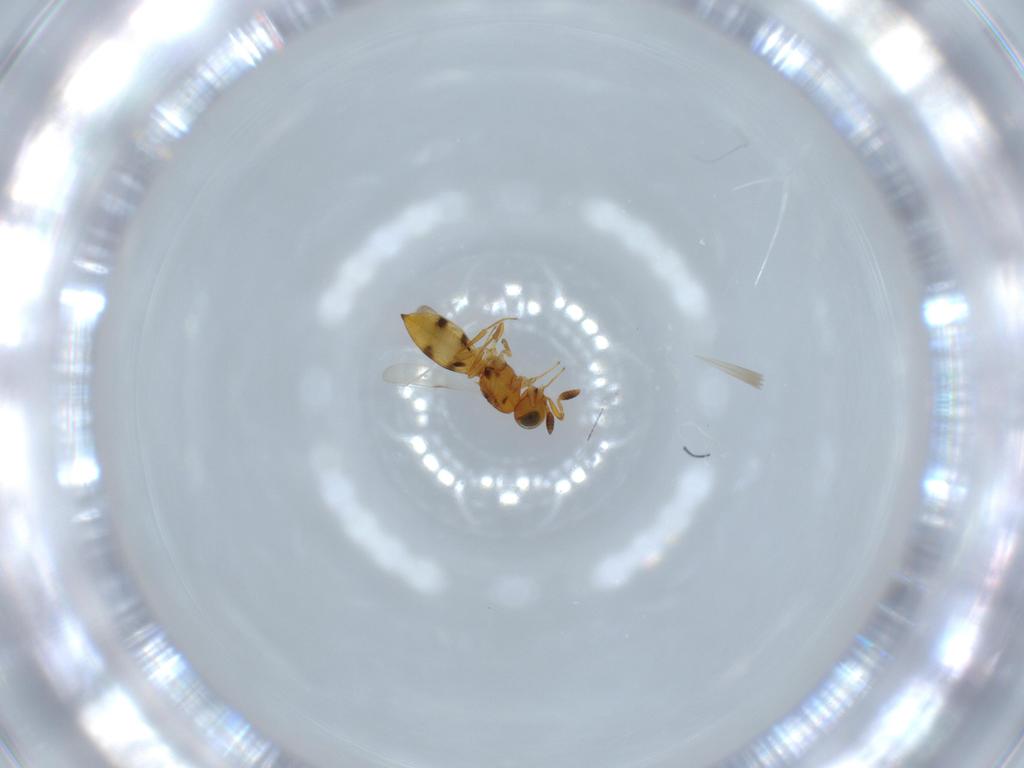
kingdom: Animalia
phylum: Arthropoda
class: Insecta
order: Hymenoptera
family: Scelionidae
